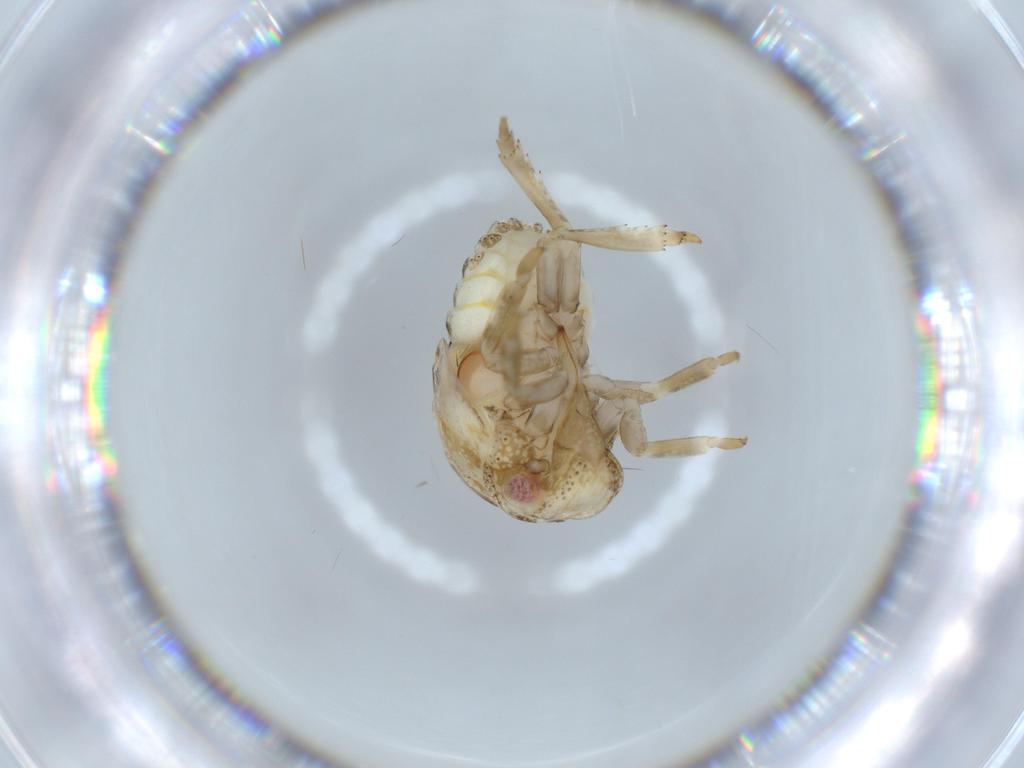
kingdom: Animalia
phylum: Arthropoda
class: Insecta
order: Hemiptera
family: Acanaloniidae
